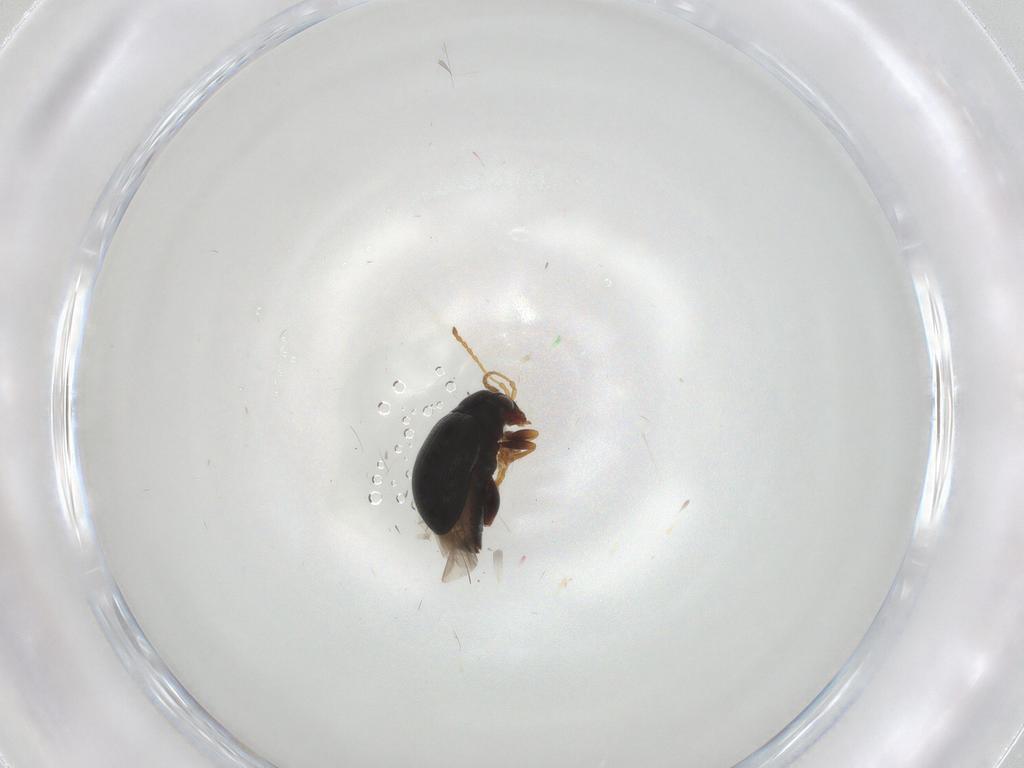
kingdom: Animalia
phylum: Arthropoda
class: Insecta
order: Coleoptera
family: Chrysomelidae
